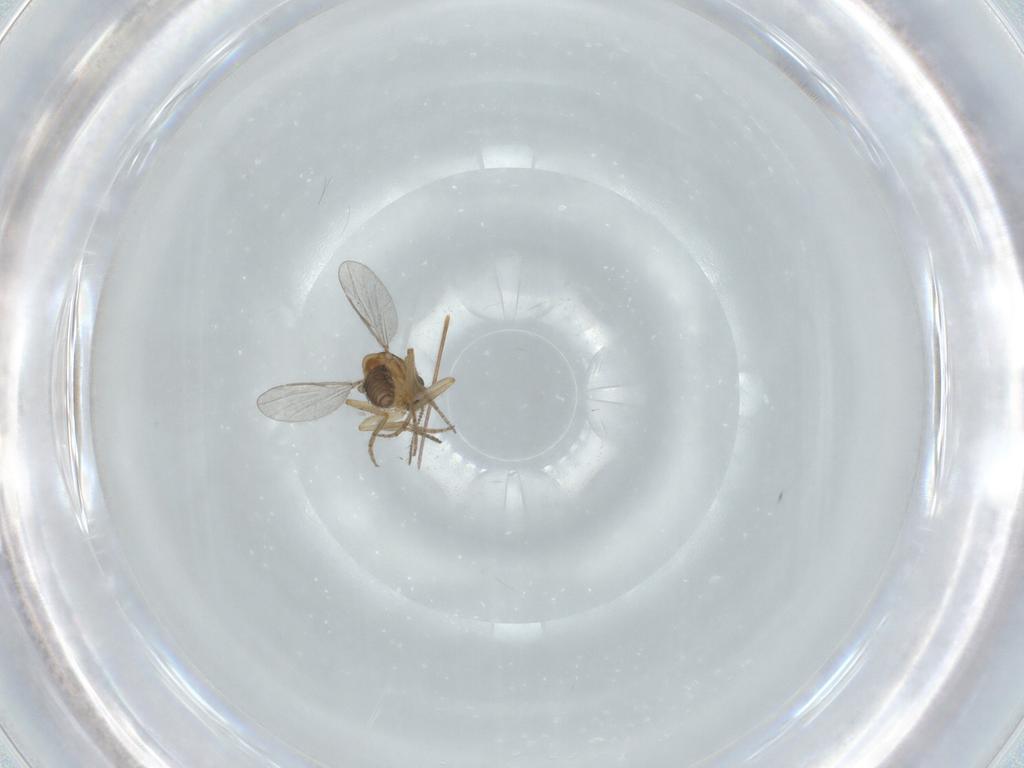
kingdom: Animalia
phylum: Arthropoda
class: Insecta
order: Diptera
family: Ceratopogonidae
